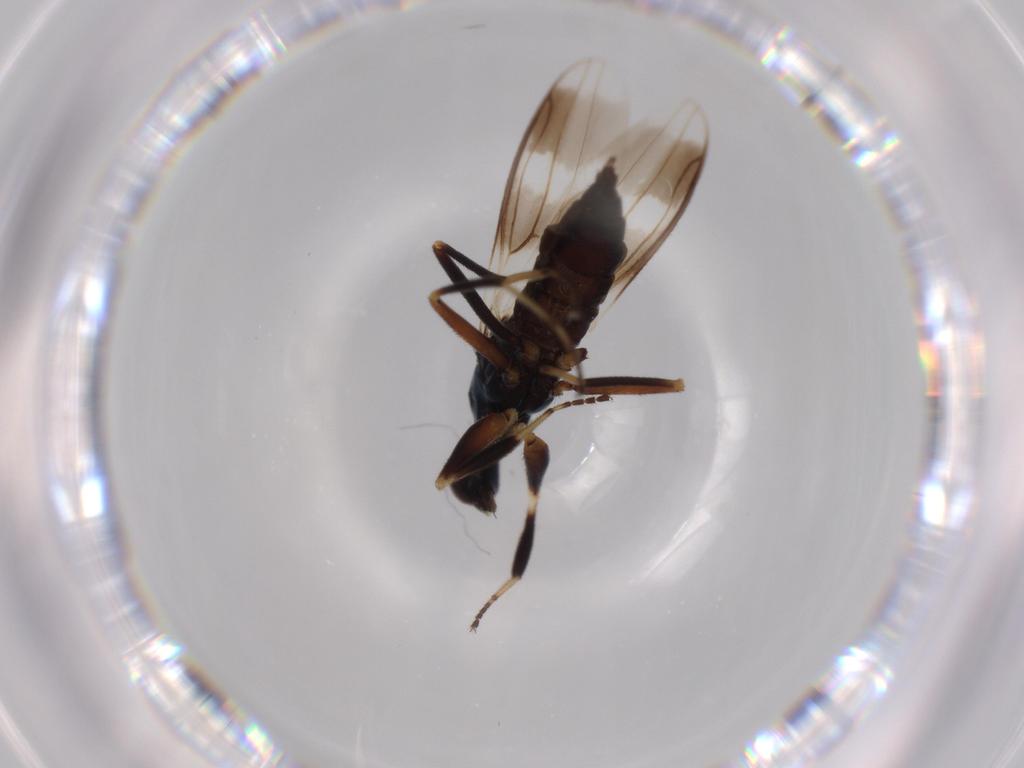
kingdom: Animalia
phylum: Arthropoda
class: Insecta
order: Diptera
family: Hybotidae
